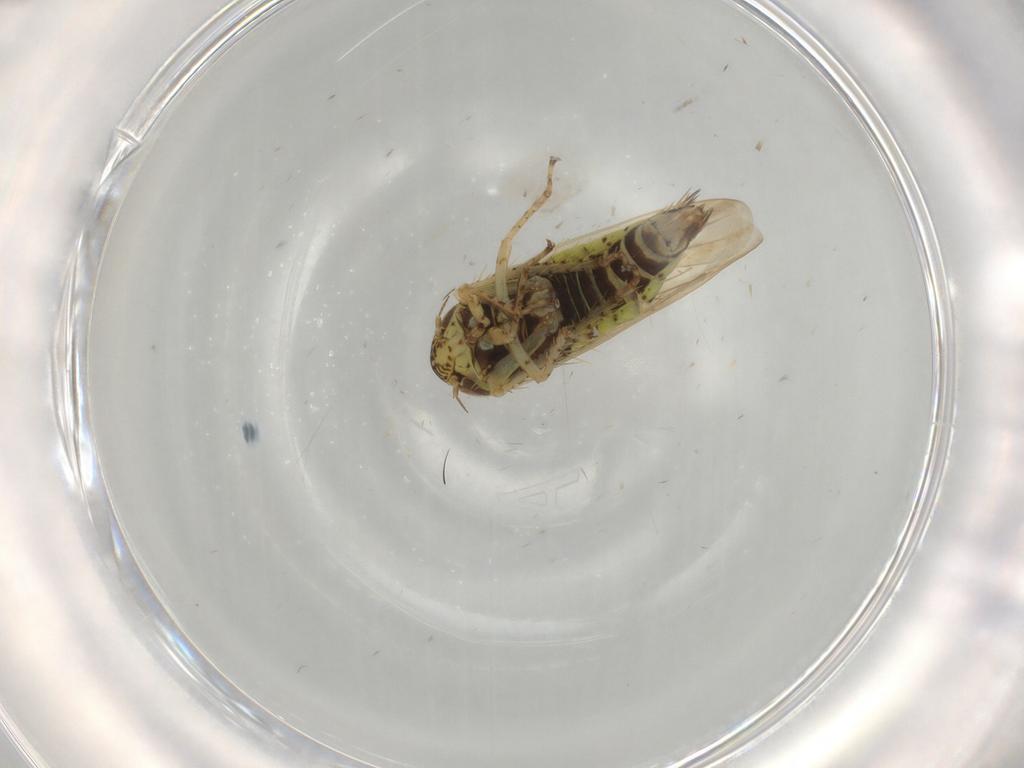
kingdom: Animalia
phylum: Arthropoda
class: Insecta
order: Hemiptera
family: Cicadellidae
